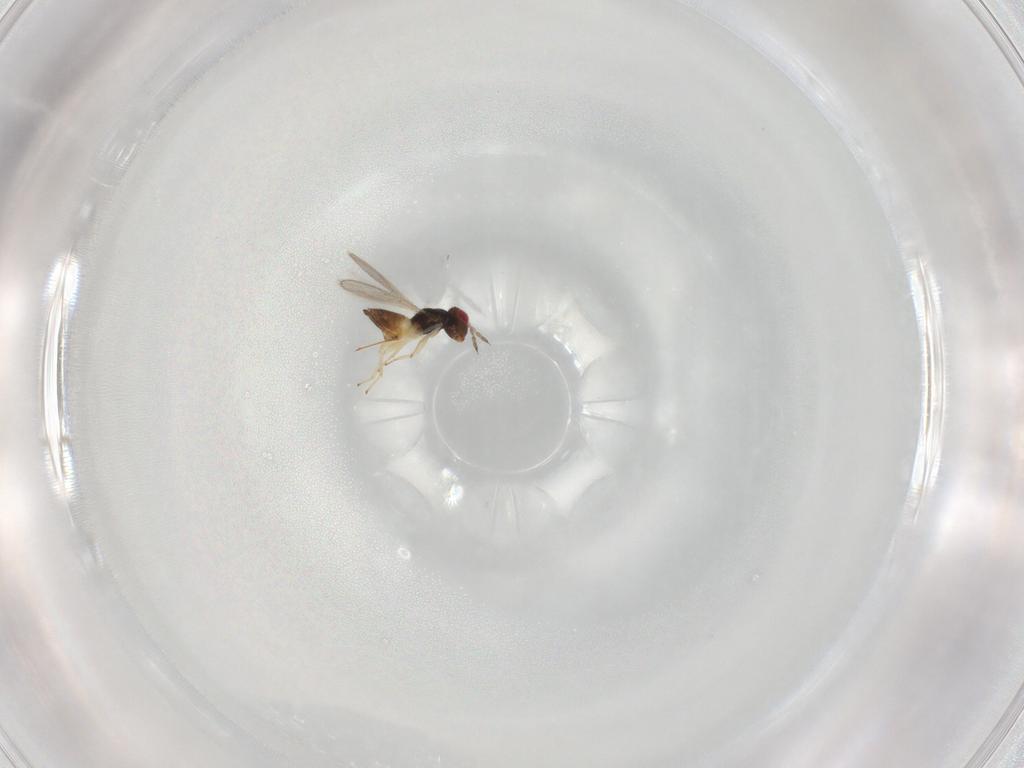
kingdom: Animalia
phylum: Arthropoda
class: Insecta
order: Hymenoptera
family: Eulophidae
